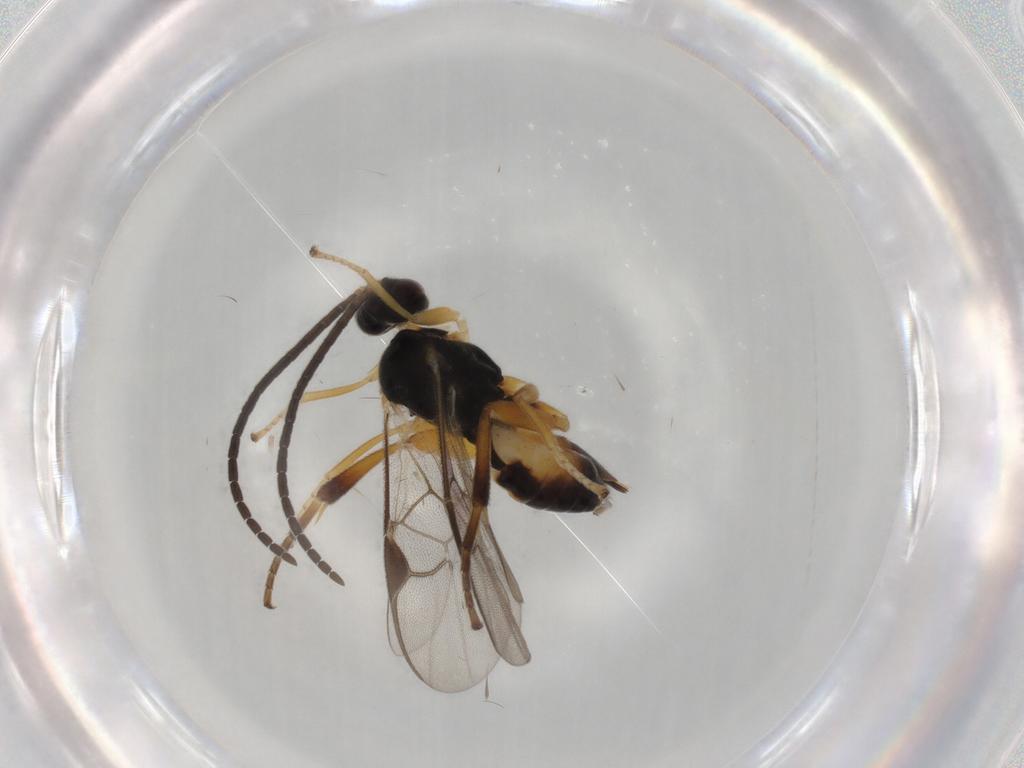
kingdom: Animalia
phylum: Arthropoda
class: Insecta
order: Hymenoptera
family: Braconidae
